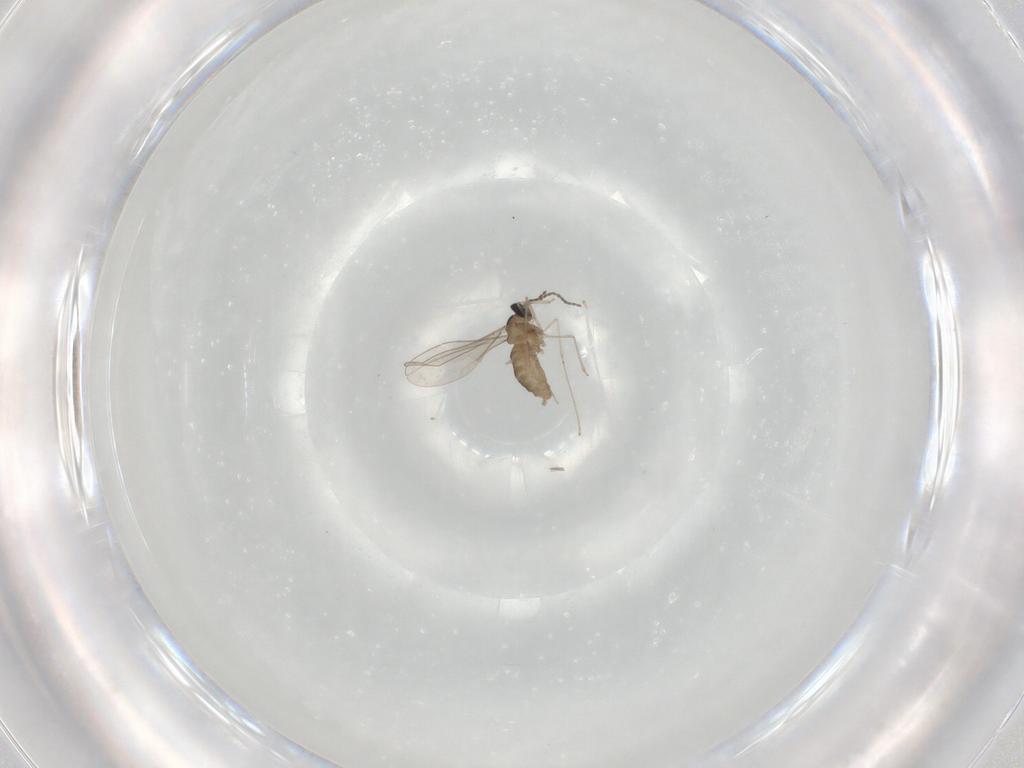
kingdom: Animalia
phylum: Arthropoda
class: Insecta
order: Diptera
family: Cecidomyiidae
